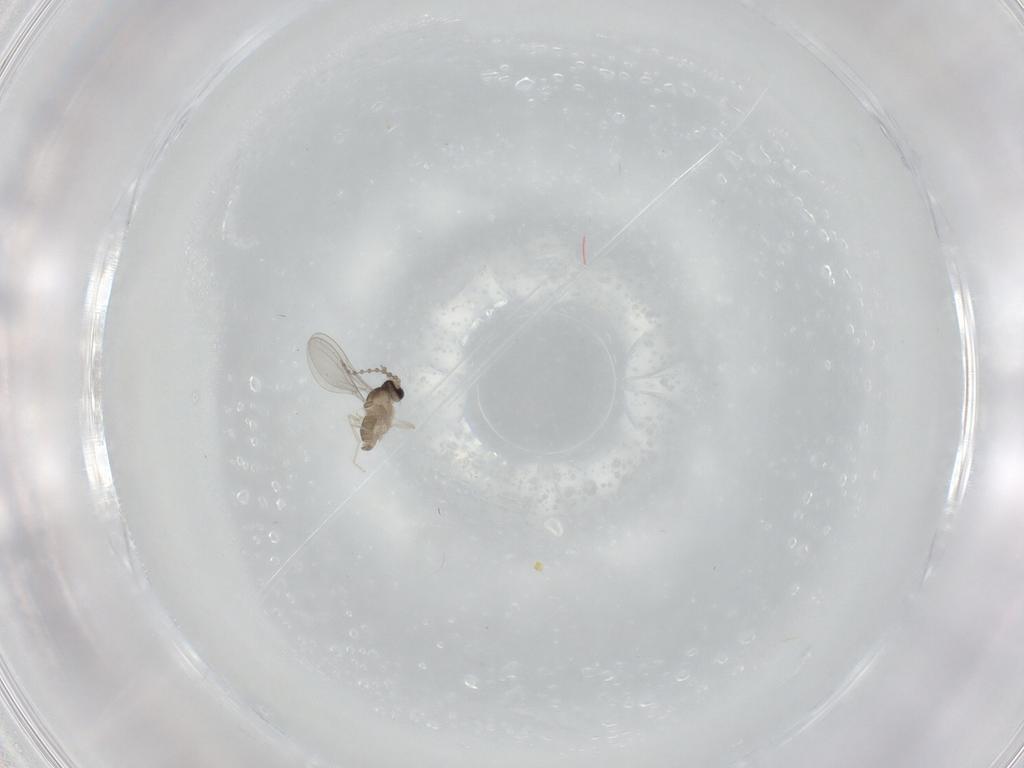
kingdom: Animalia
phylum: Arthropoda
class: Insecta
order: Diptera
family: Cecidomyiidae
